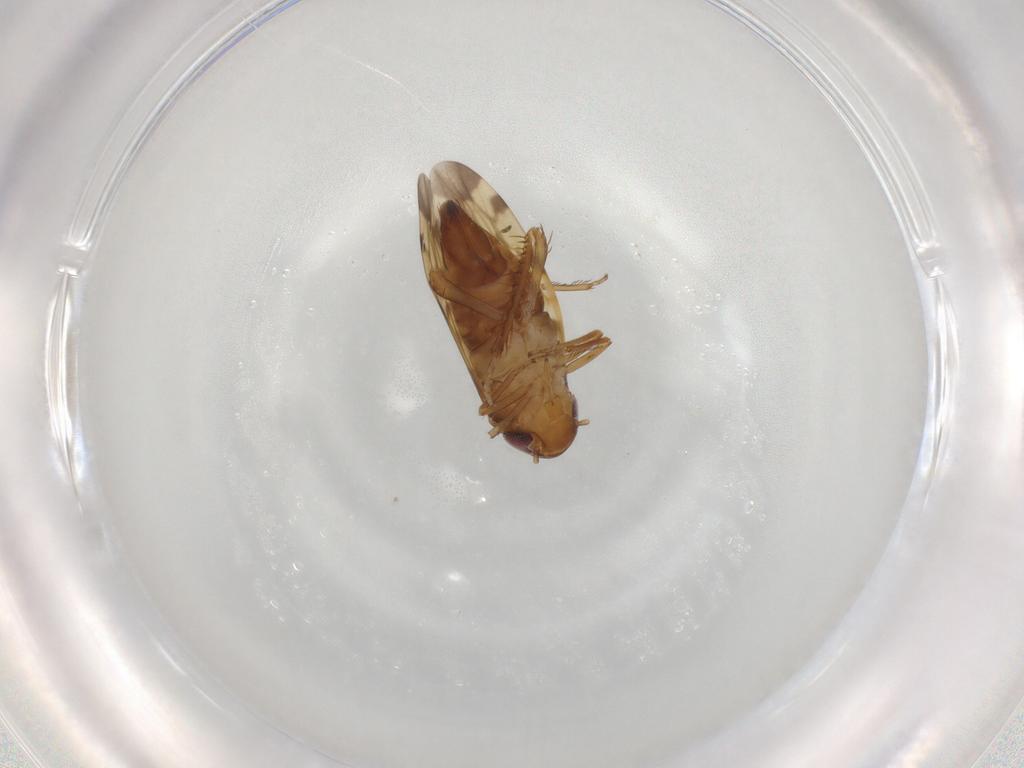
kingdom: Animalia
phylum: Arthropoda
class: Insecta
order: Hemiptera
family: Cicadellidae
